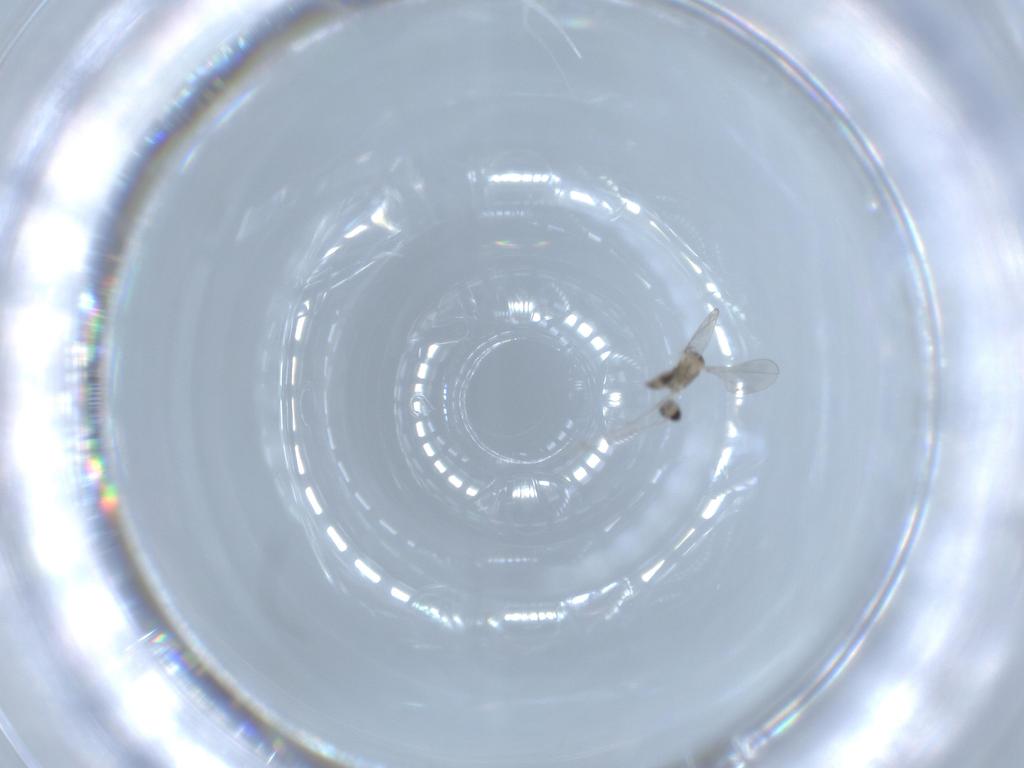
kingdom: Animalia
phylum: Arthropoda
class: Insecta
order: Diptera
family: Cecidomyiidae
